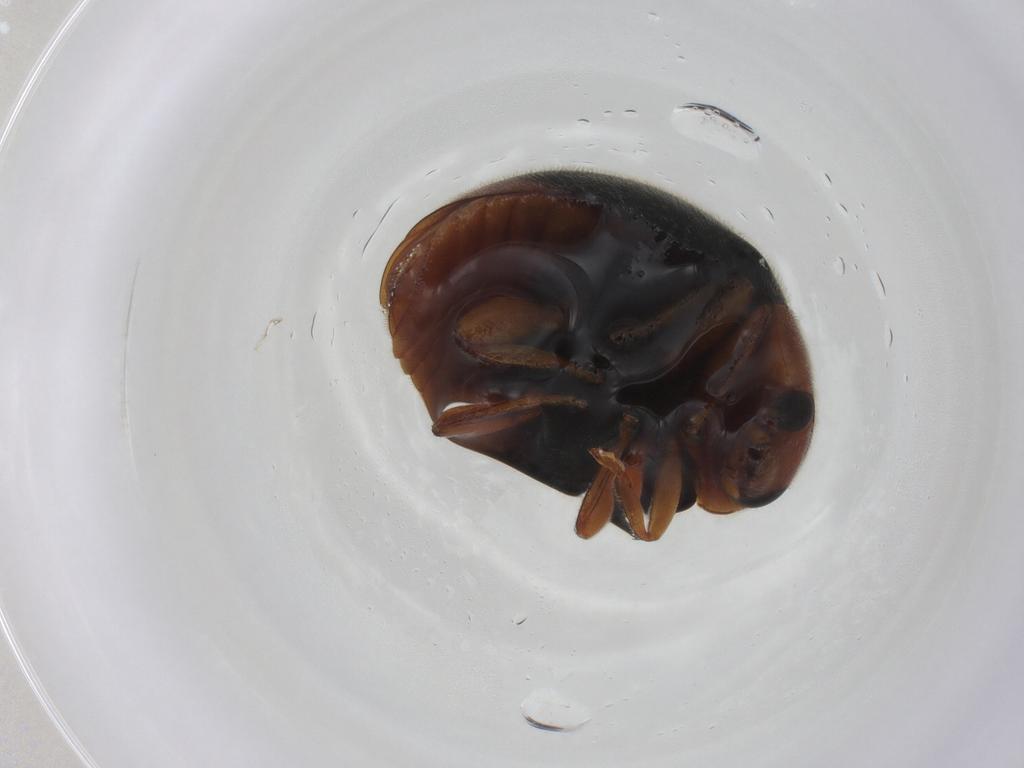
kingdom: Animalia
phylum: Arthropoda
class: Insecta
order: Coleoptera
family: Coccinellidae
